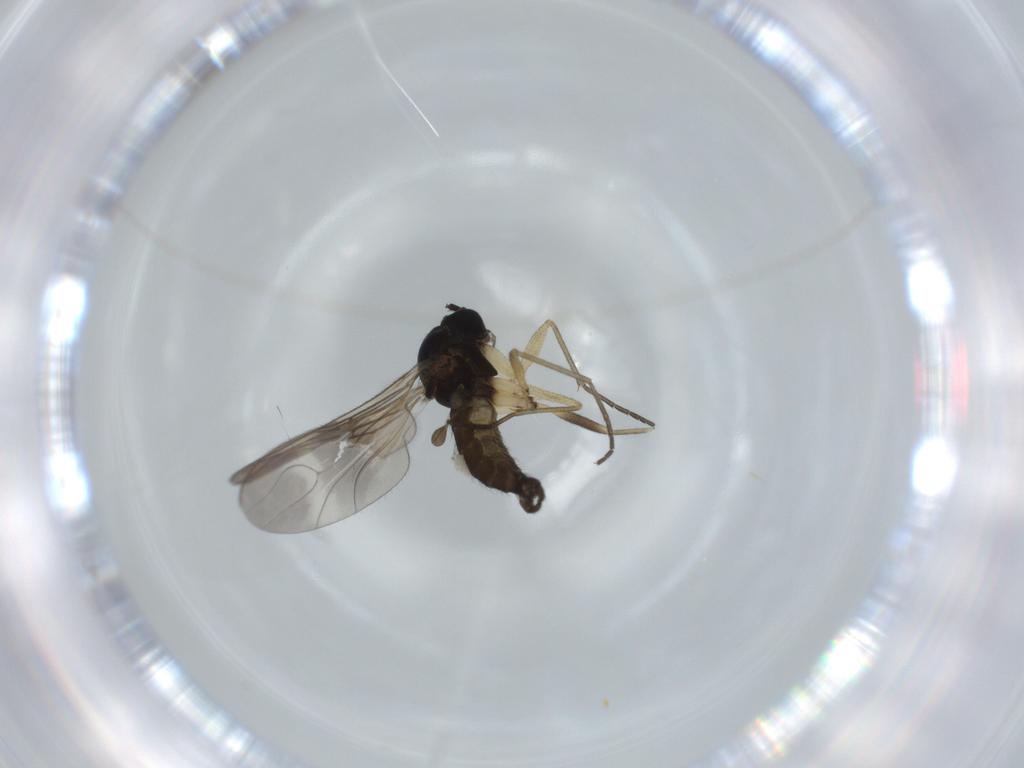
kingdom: Animalia
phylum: Arthropoda
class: Insecta
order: Diptera
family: Sciaridae
